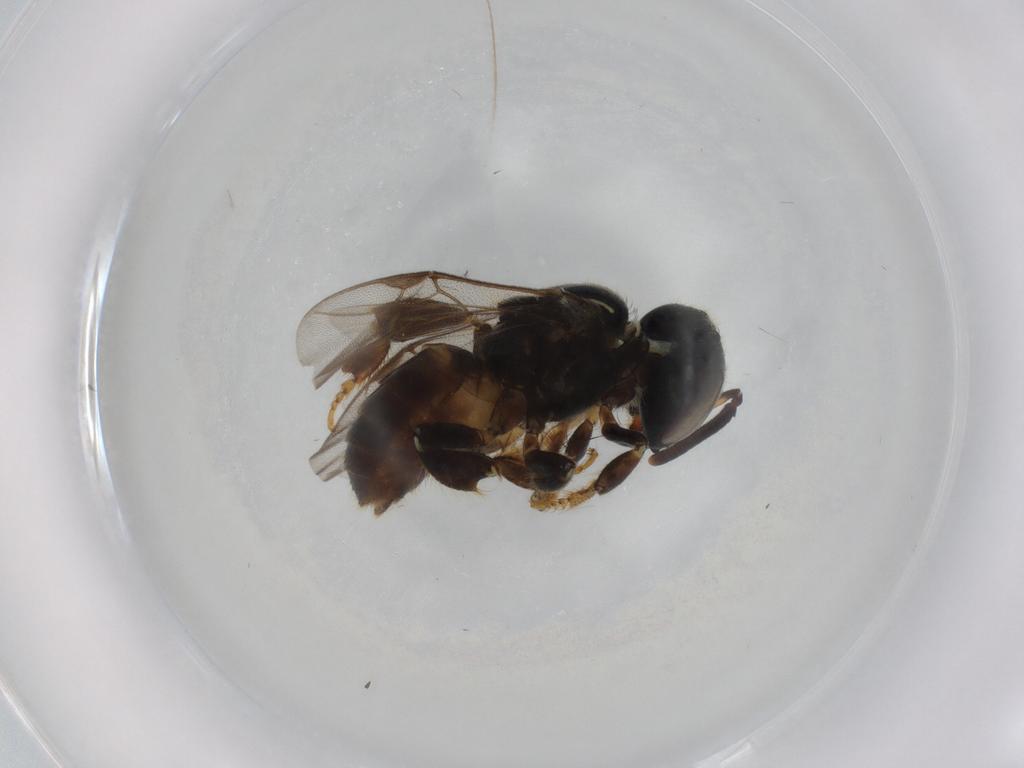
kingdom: Animalia
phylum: Arthropoda
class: Insecta
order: Hymenoptera
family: Apidae
